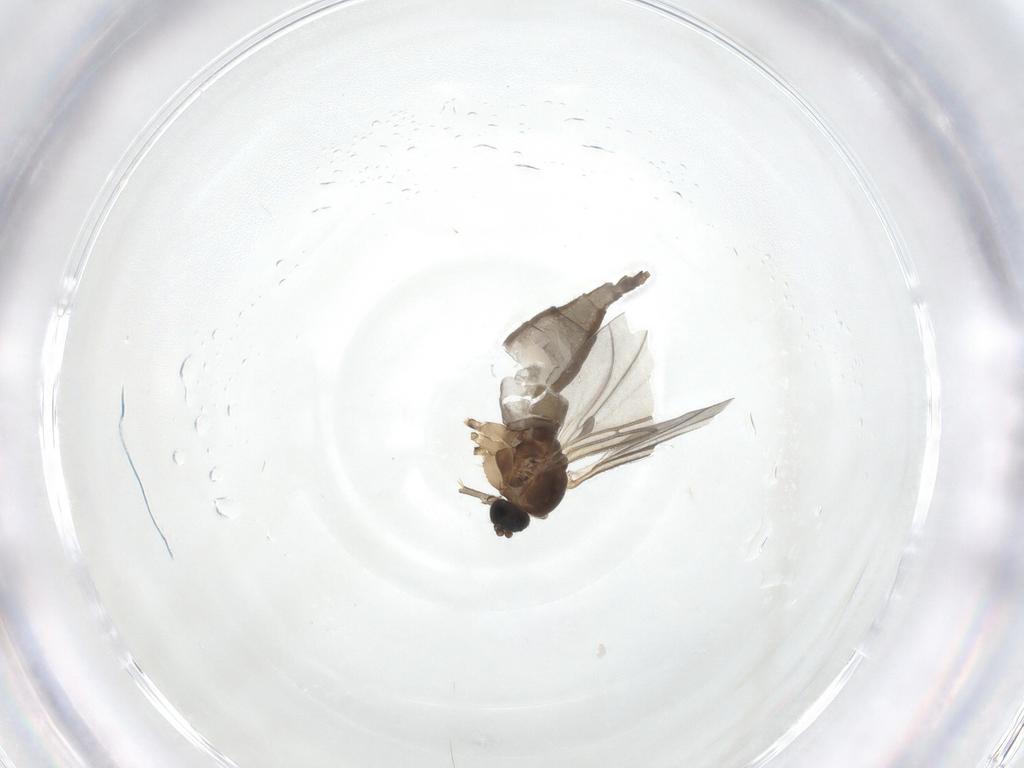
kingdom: Animalia
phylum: Arthropoda
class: Insecta
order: Diptera
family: Sciaridae
